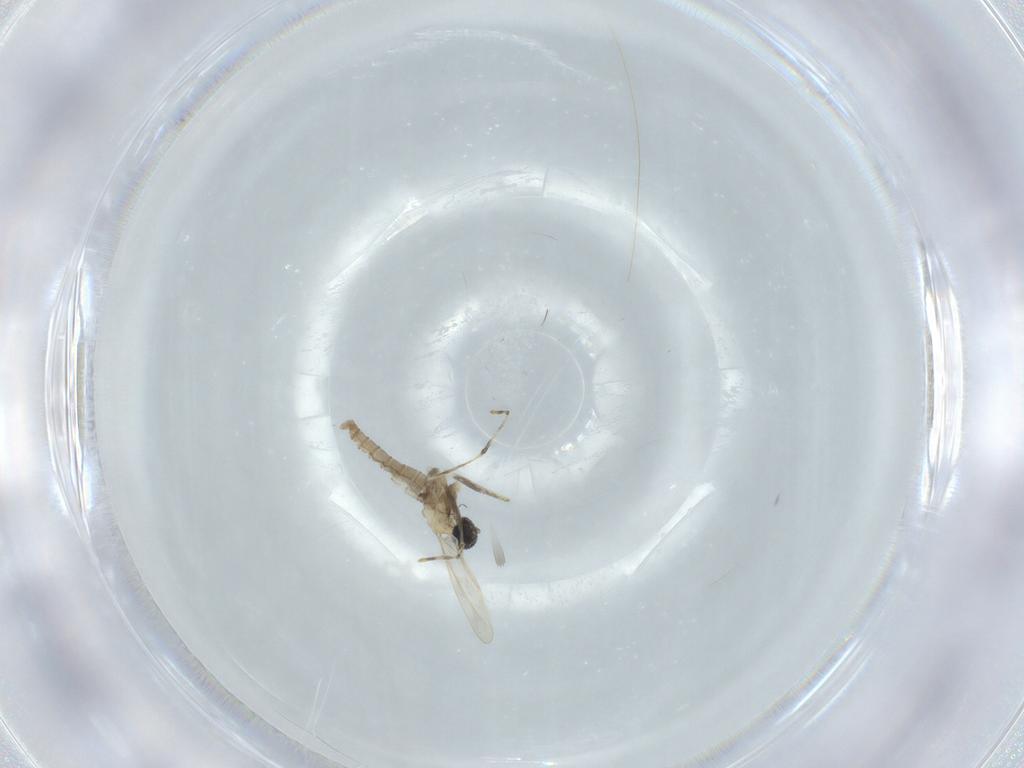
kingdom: Animalia
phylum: Arthropoda
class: Insecta
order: Diptera
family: Cecidomyiidae
